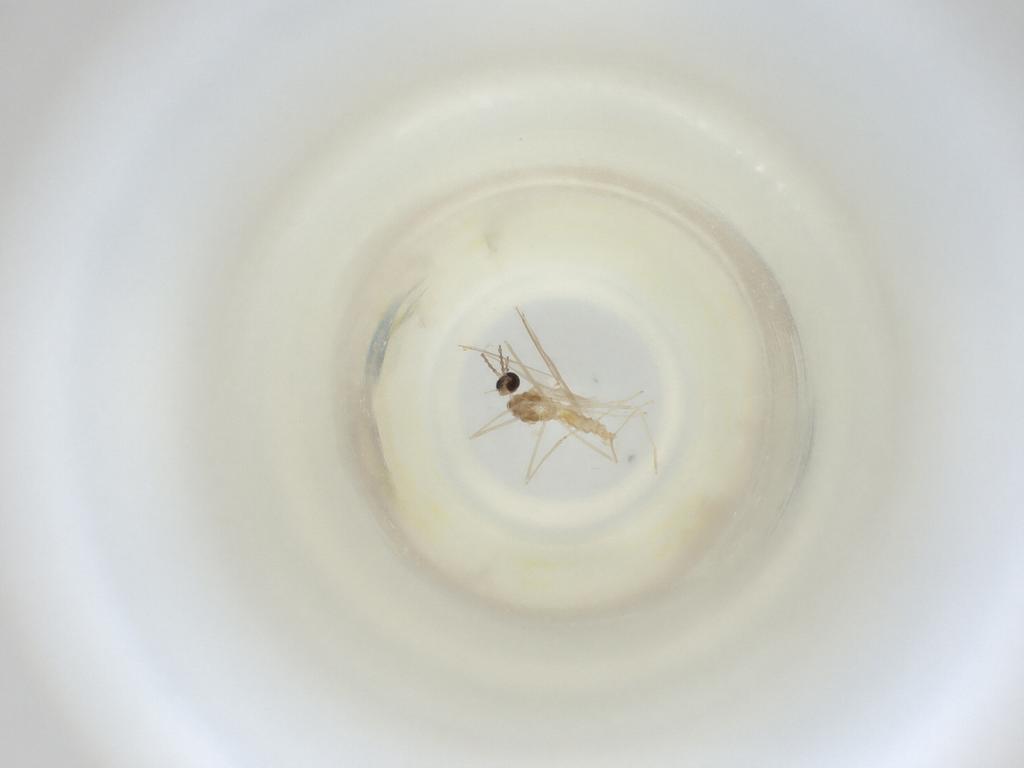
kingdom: Animalia
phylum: Arthropoda
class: Insecta
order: Diptera
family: Cecidomyiidae
